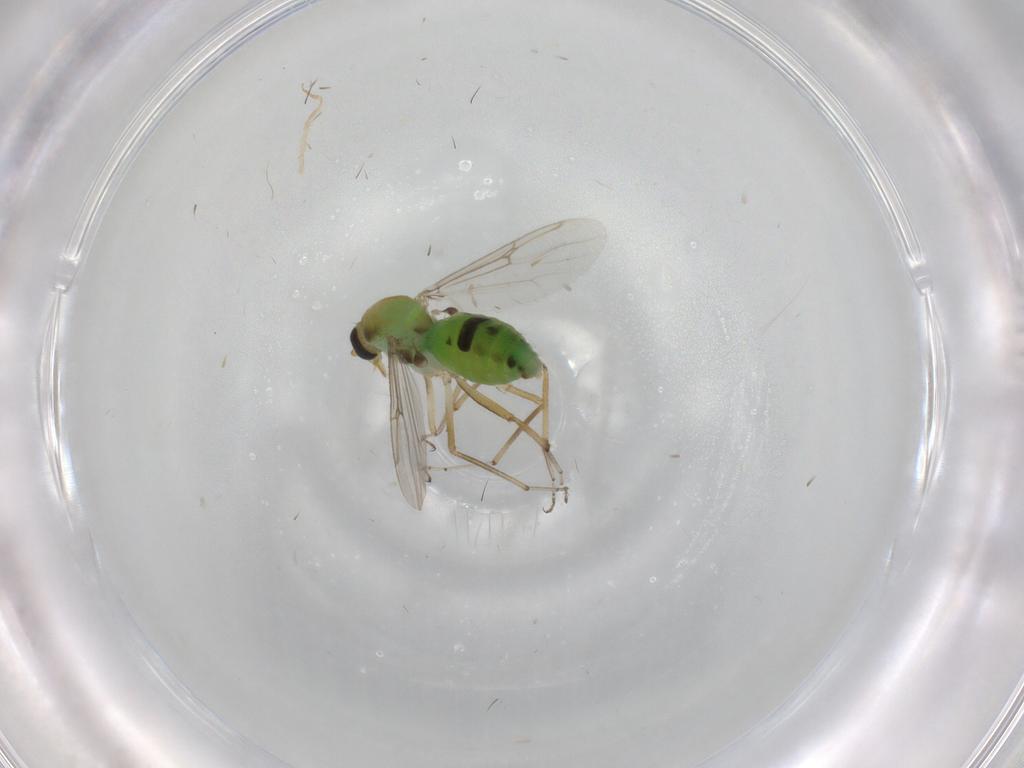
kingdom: Animalia
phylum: Arthropoda
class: Insecta
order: Diptera
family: Ceratopogonidae
